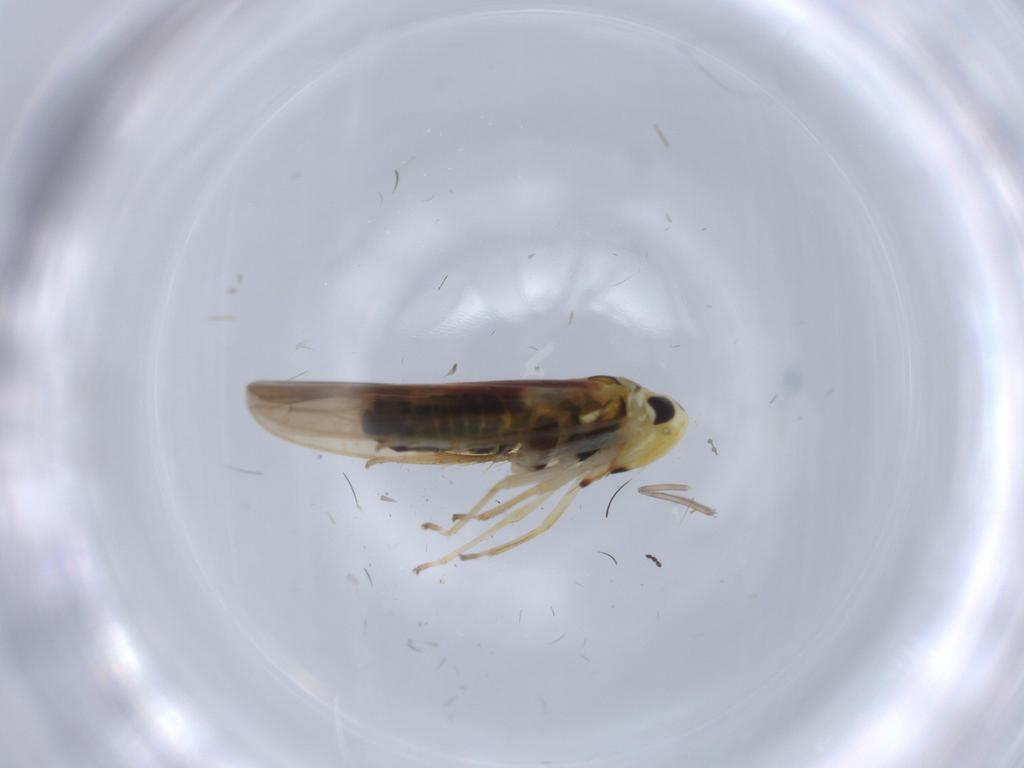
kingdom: Animalia
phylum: Arthropoda
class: Insecta
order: Hemiptera
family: Cicadellidae
